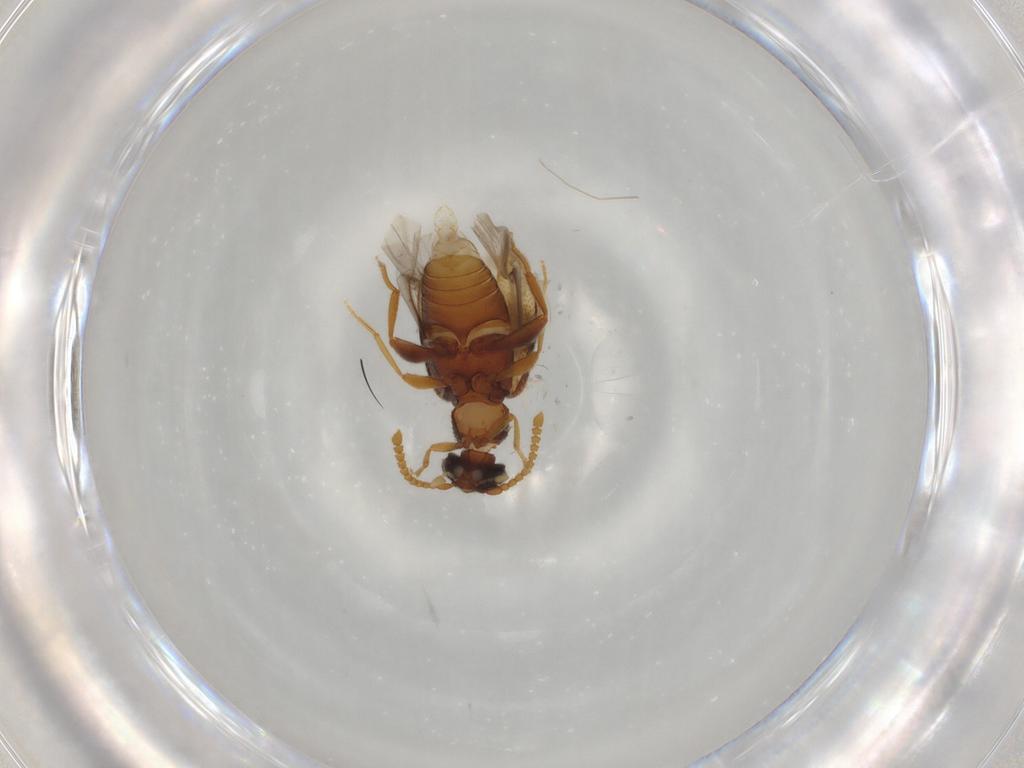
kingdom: Animalia
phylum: Arthropoda
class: Insecta
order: Coleoptera
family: Aderidae
